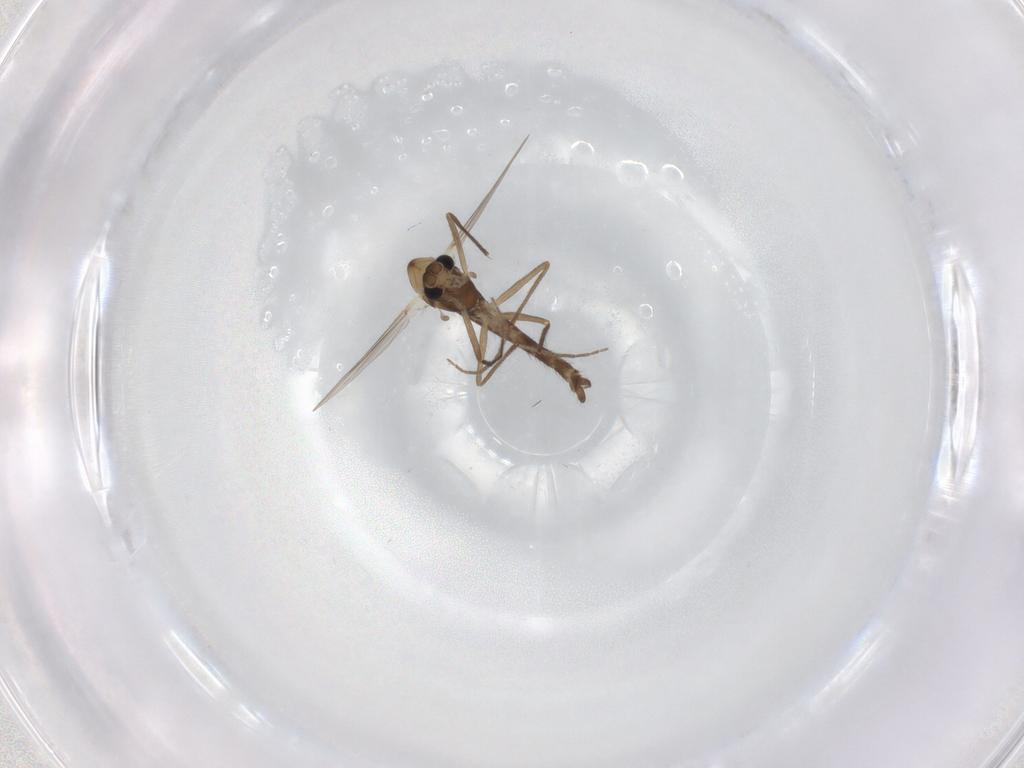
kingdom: Animalia
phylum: Arthropoda
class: Insecta
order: Diptera
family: Chironomidae
